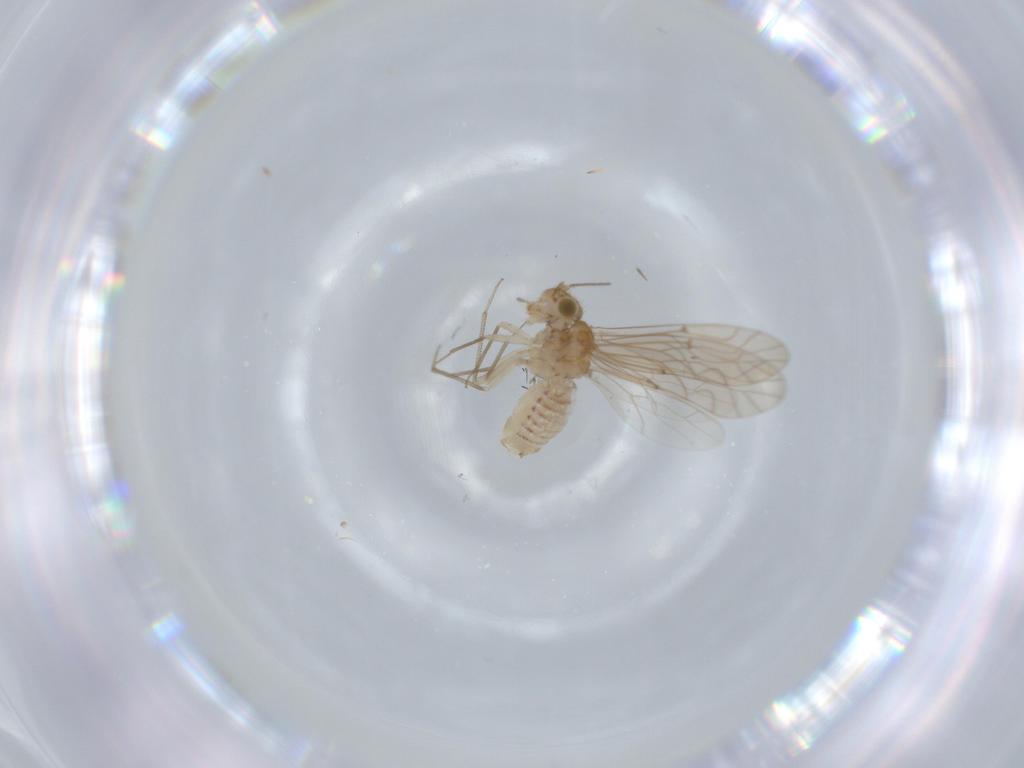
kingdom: Animalia
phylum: Arthropoda
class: Insecta
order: Psocodea
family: Lachesillidae
